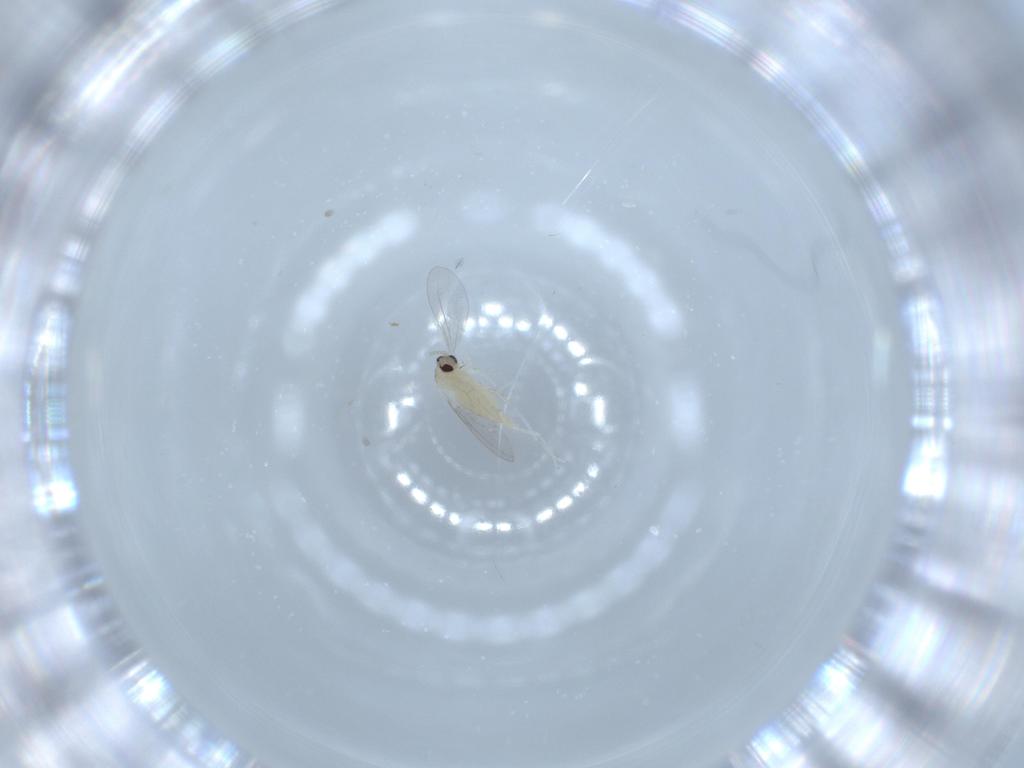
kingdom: Animalia
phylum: Arthropoda
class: Insecta
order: Diptera
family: Cecidomyiidae
